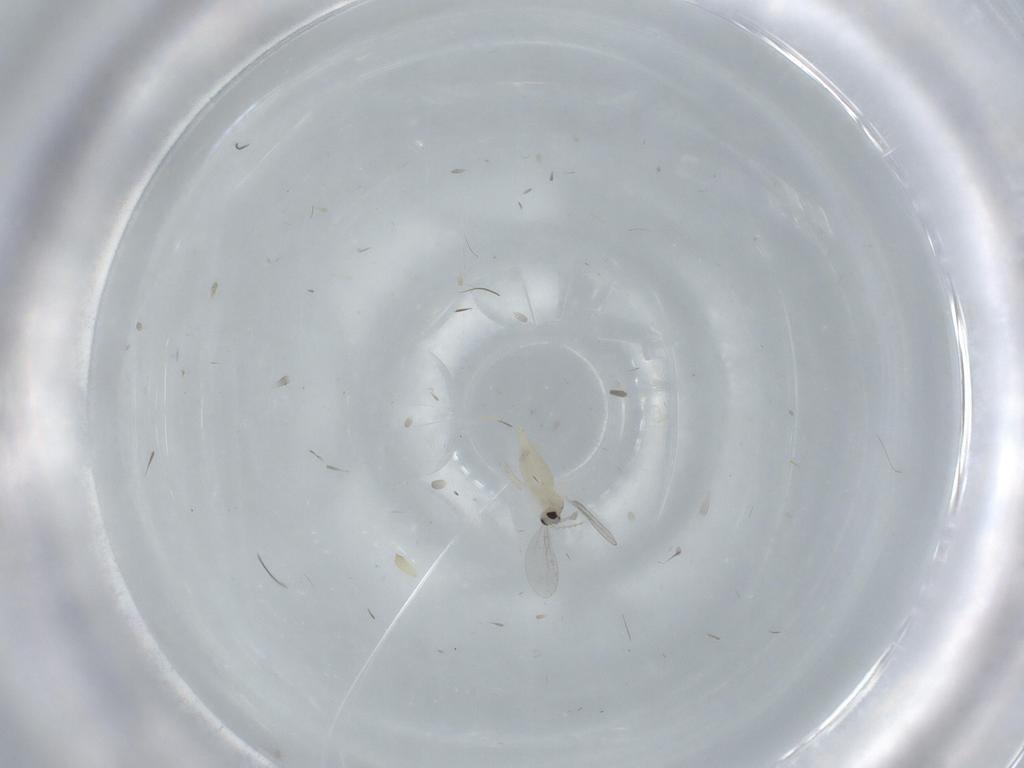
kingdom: Animalia
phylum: Arthropoda
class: Insecta
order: Diptera
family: Cecidomyiidae
